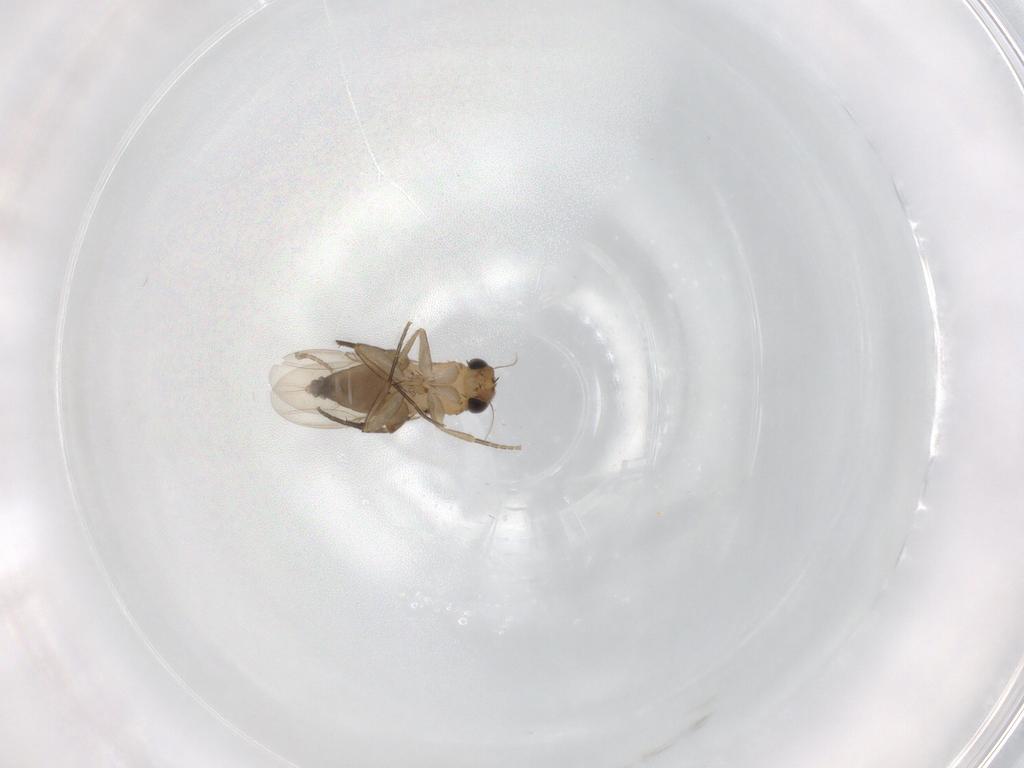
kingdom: Animalia
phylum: Arthropoda
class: Insecta
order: Diptera
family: Phoridae
